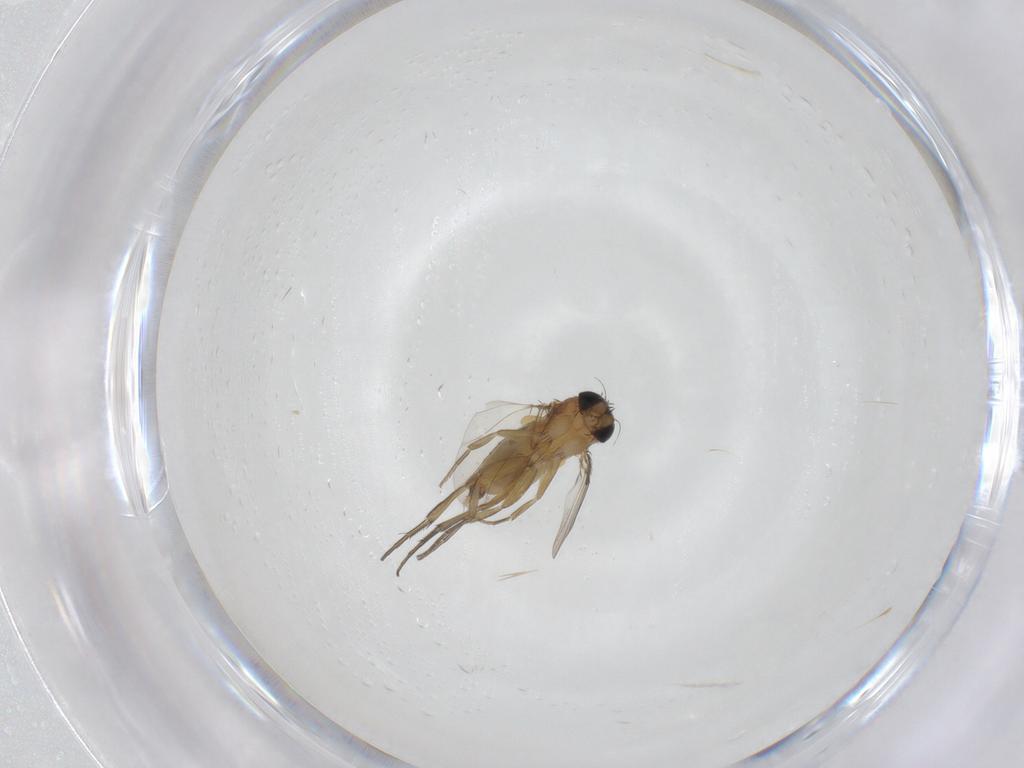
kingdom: Animalia
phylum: Arthropoda
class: Insecta
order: Diptera
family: Phoridae
